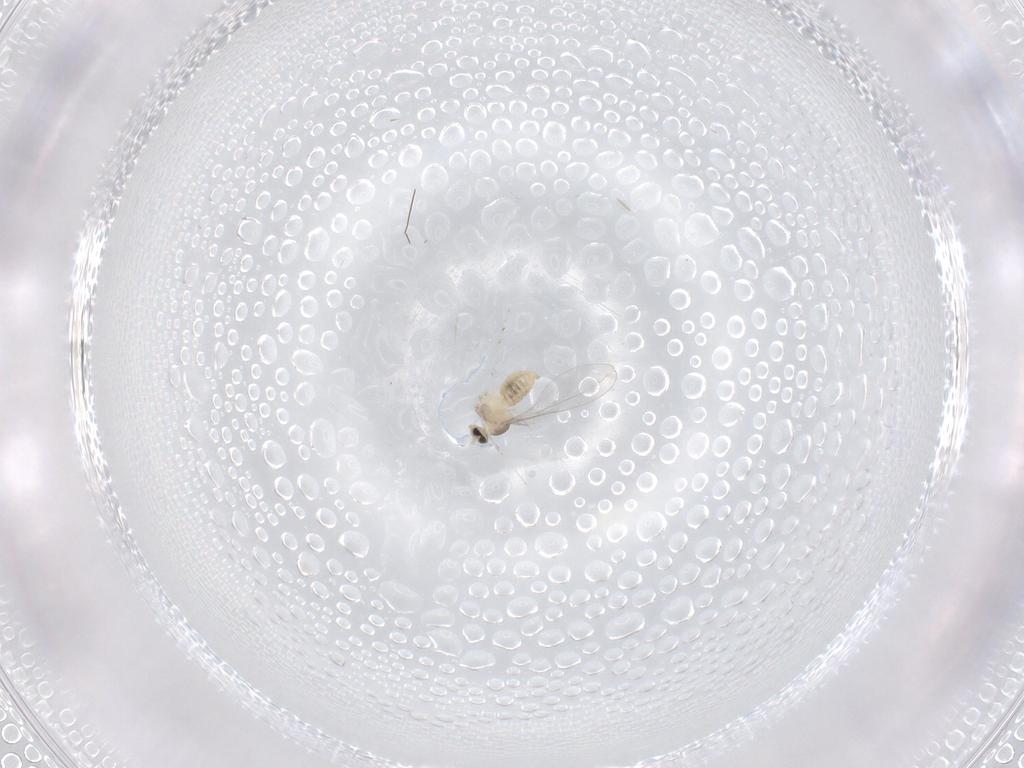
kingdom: Animalia
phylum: Arthropoda
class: Insecta
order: Diptera
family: Cecidomyiidae
